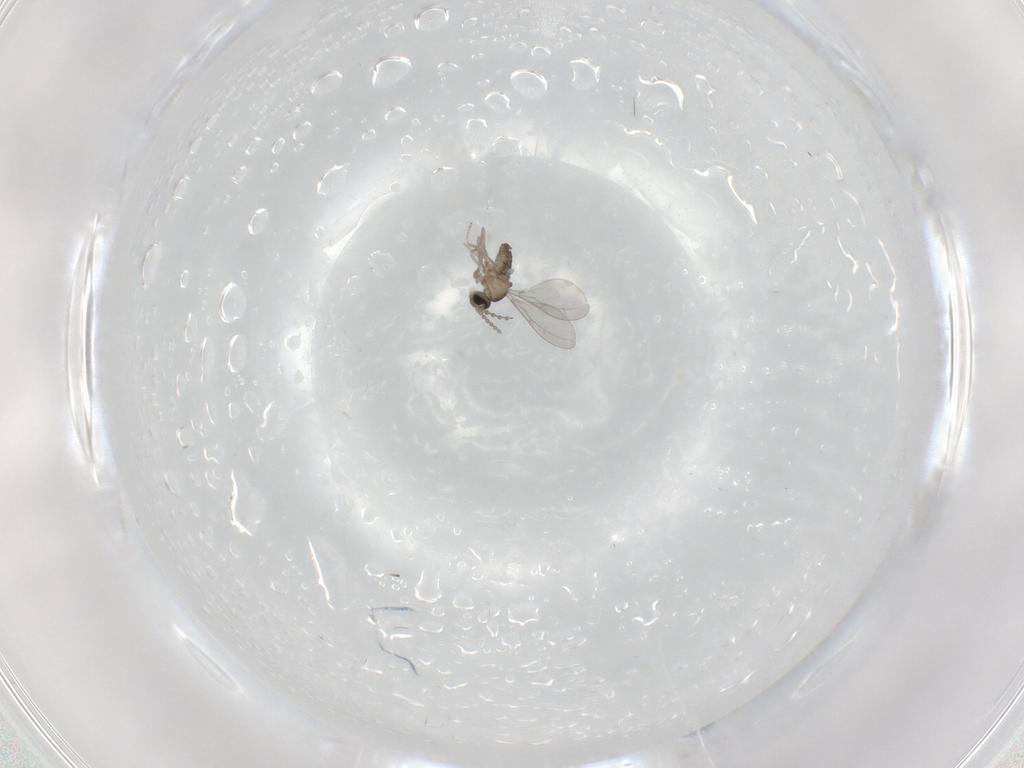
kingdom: Animalia
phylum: Arthropoda
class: Insecta
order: Diptera
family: Cecidomyiidae
